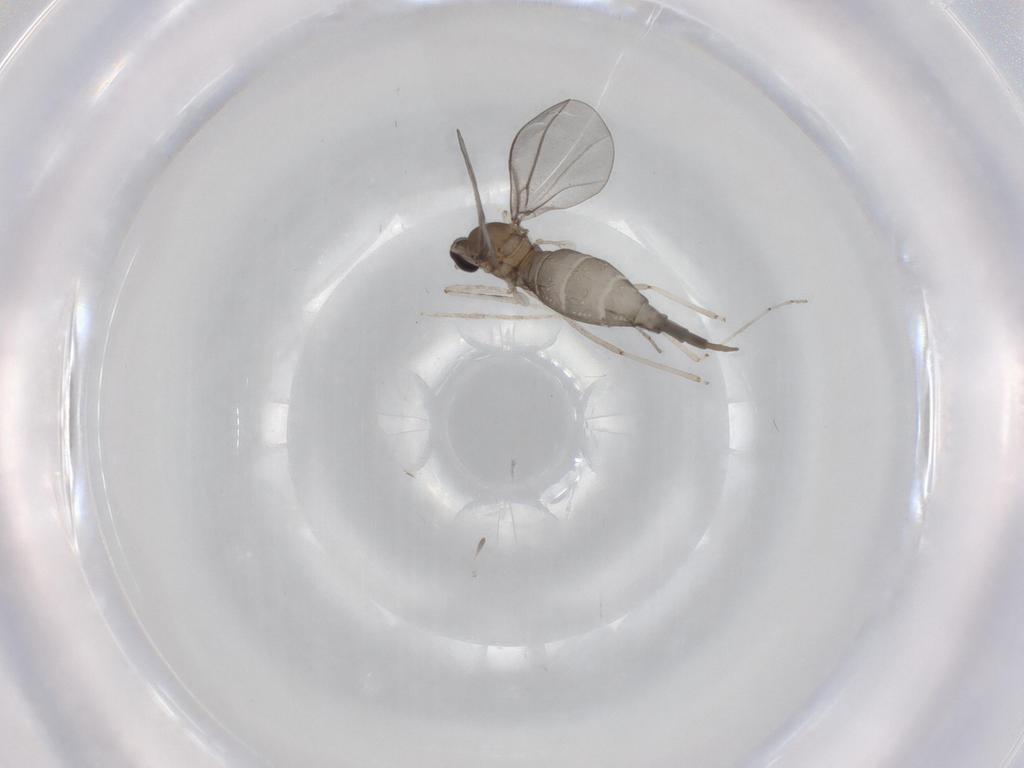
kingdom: Animalia
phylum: Arthropoda
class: Insecta
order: Diptera
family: Cecidomyiidae
